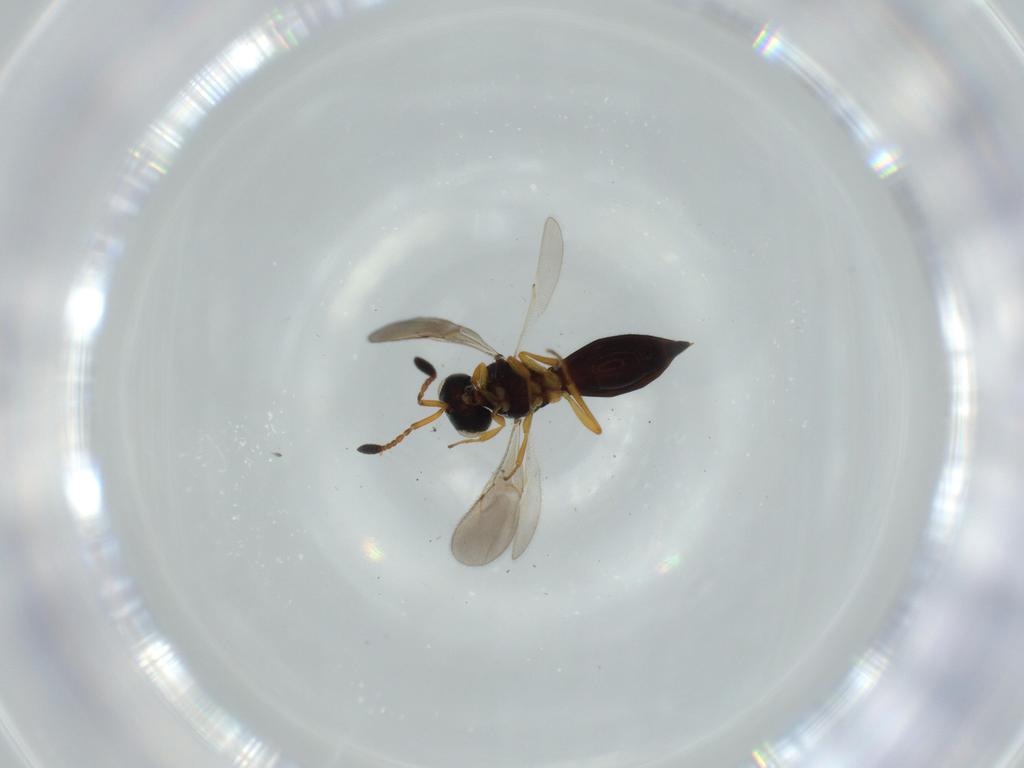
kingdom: Animalia
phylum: Arthropoda
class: Insecta
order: Hymenoptera
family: Scelionidae
